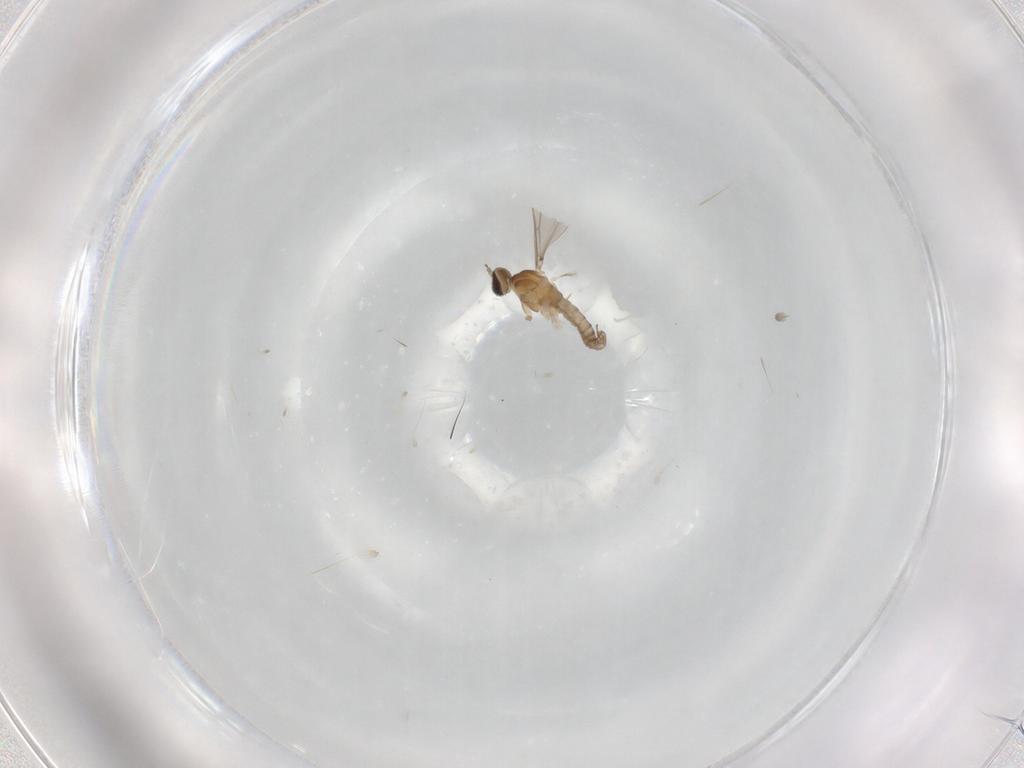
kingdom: Animalia
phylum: Arthropoda
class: Insecta
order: Diptera
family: Cecidomyiidae
